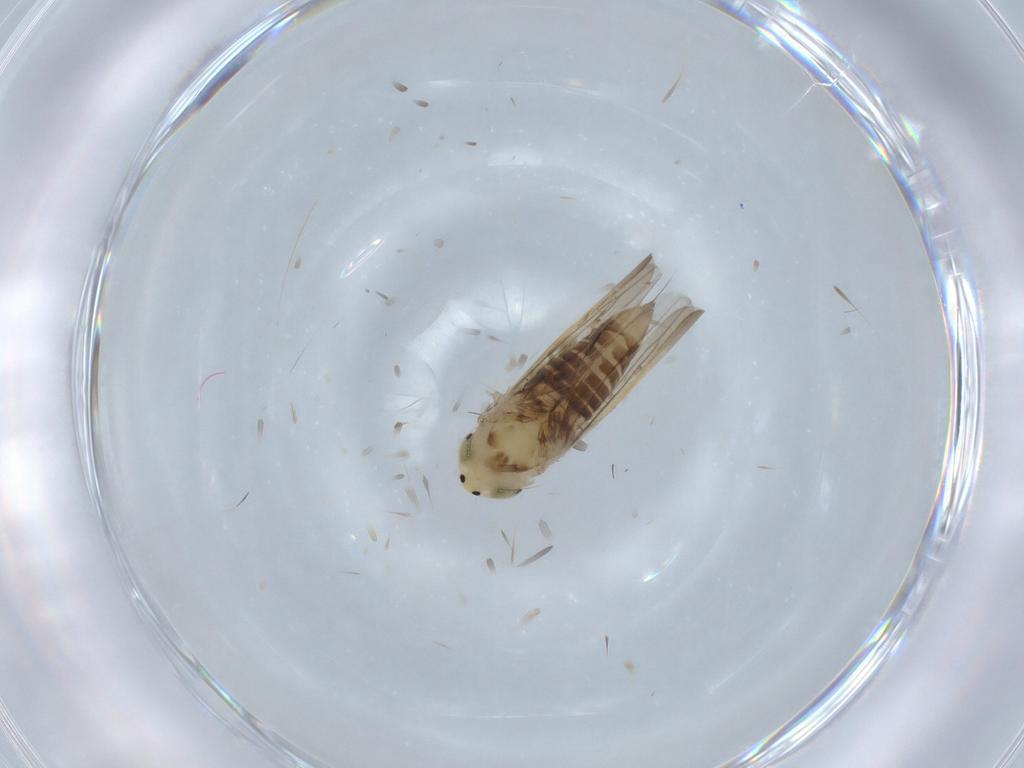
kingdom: Animalia
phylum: Arthropoda
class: Insecta
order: Hemiptera
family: Cicadellidae
